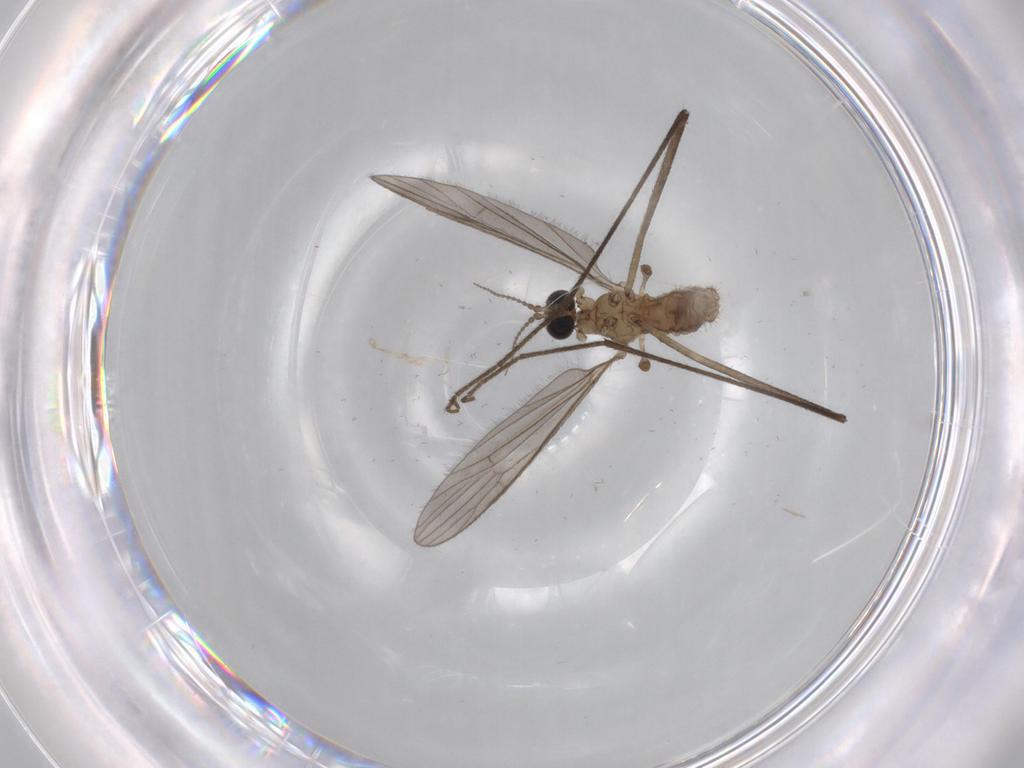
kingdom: Animalia
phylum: Arthropoda
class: Insecta
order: Diptera
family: Limoniidae
